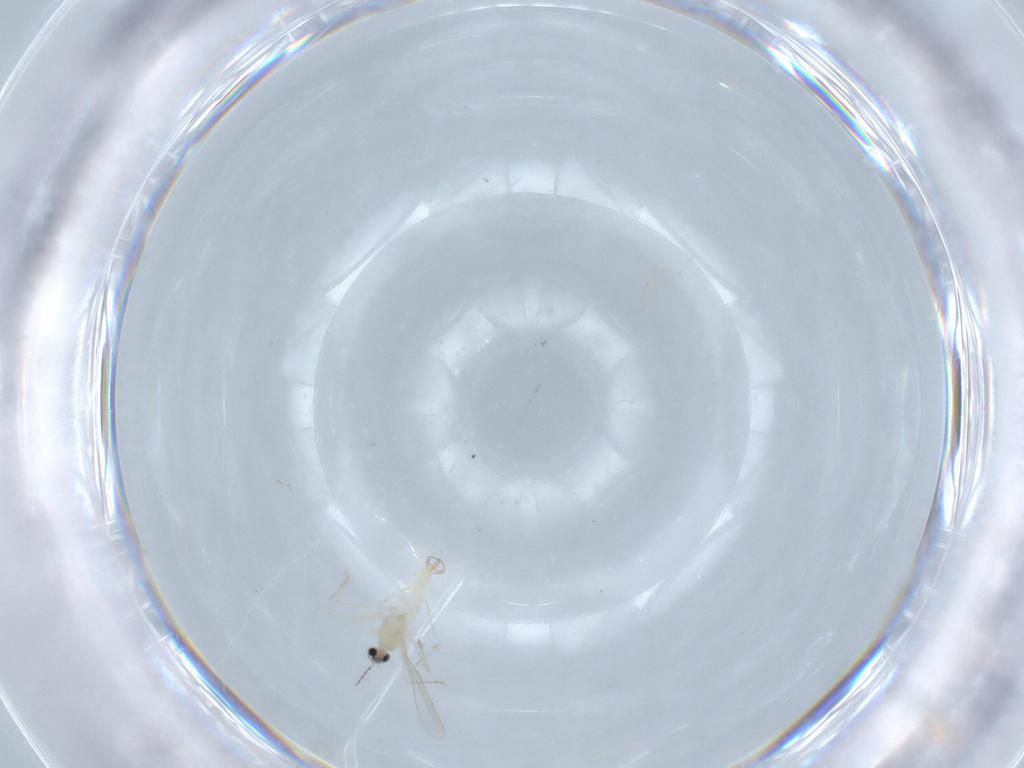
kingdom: Animalia
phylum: Arthropoda
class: Insecta
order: Diptera
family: Cecidomyiidae
